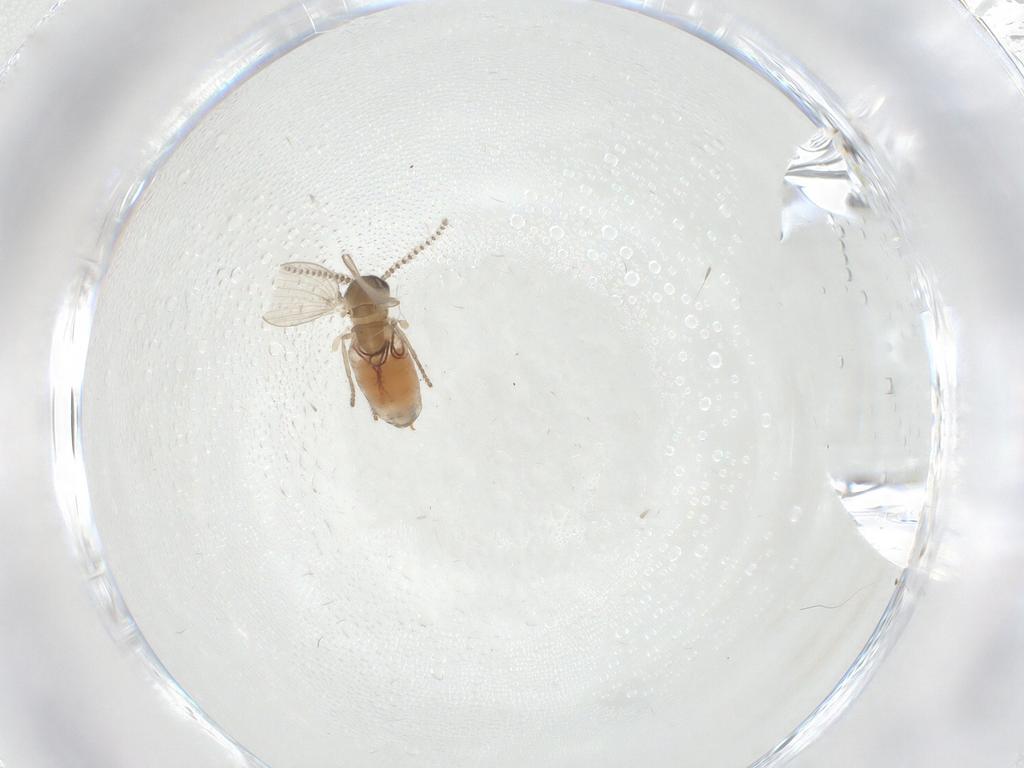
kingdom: Animalia
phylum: Arthropoda
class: Insecta
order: Diptera
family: Psychodidae
